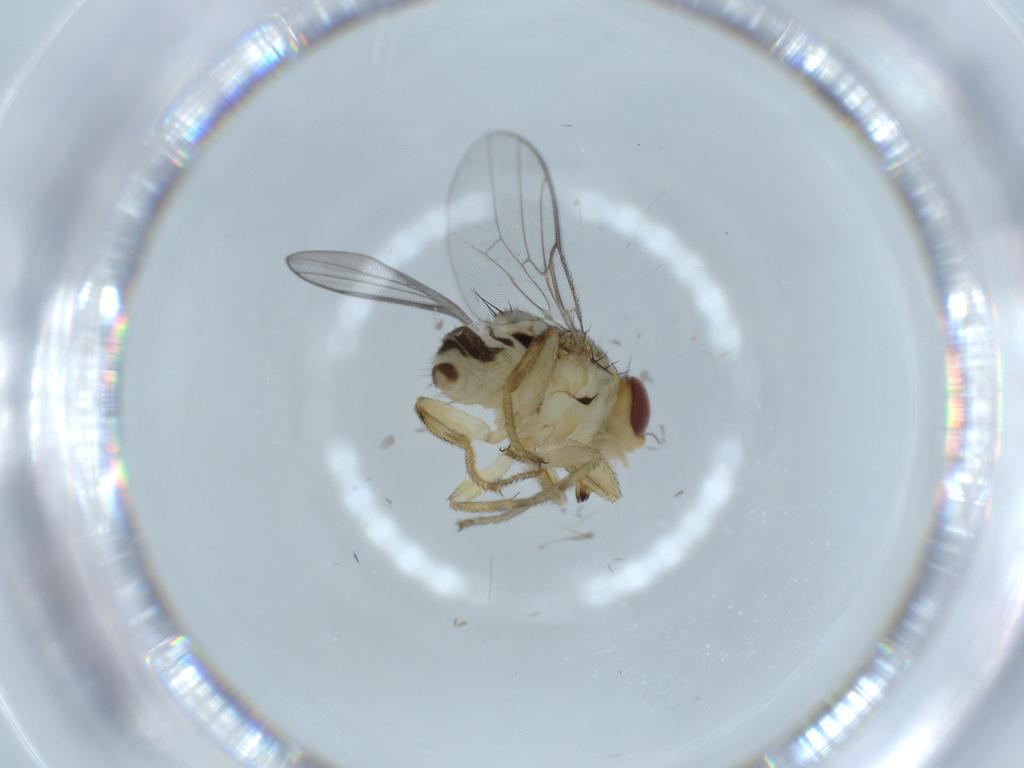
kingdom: Animalia
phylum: Arthropoda
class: Insecta
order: Diptera
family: Chloropidae
